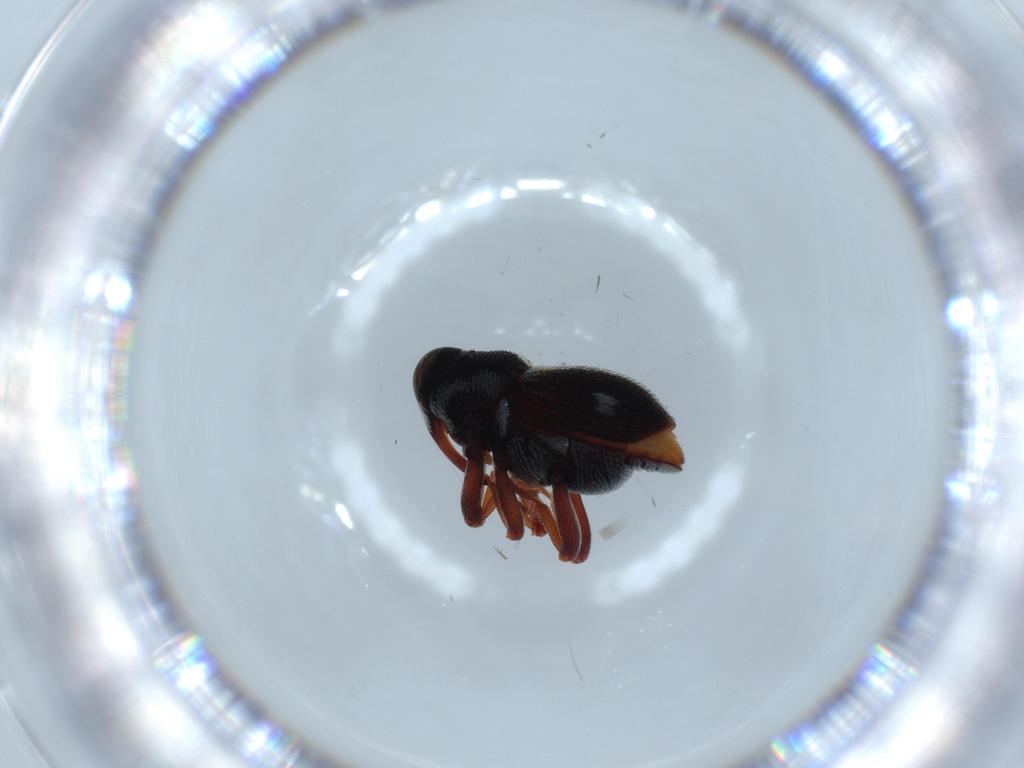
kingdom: Animalia
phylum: Arthropoda
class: Insecta
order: Coleoptera
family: Curculionidae
